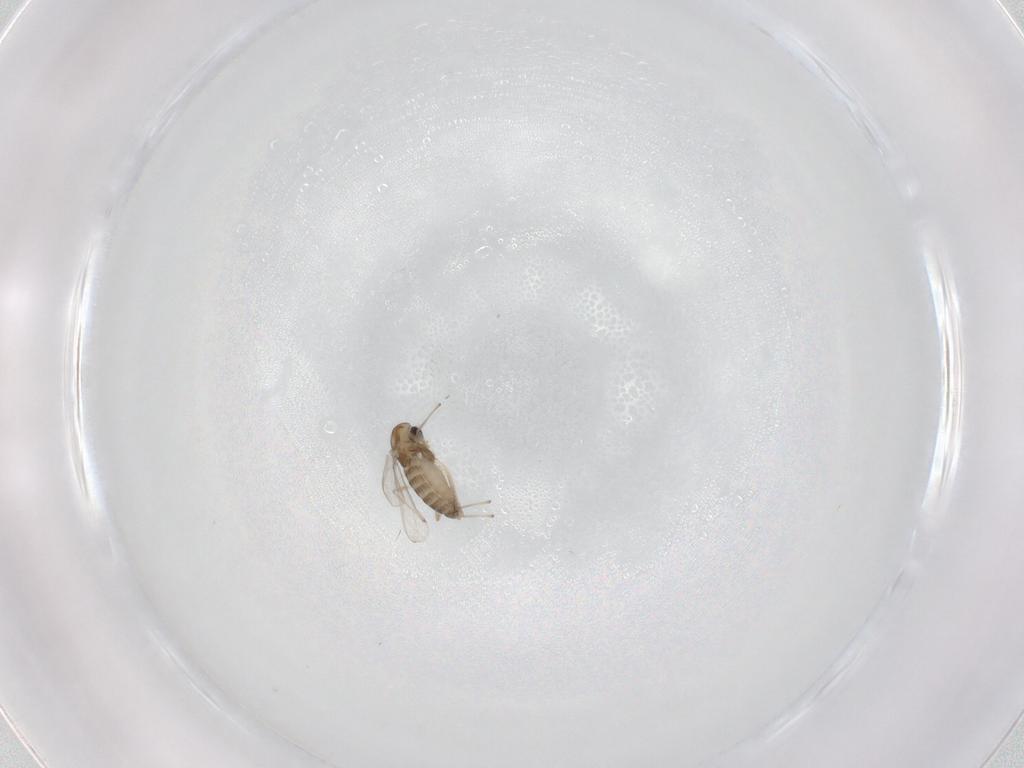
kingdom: Animalia
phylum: Arthropoda
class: Insecta
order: Diptera
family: Chironomidae
